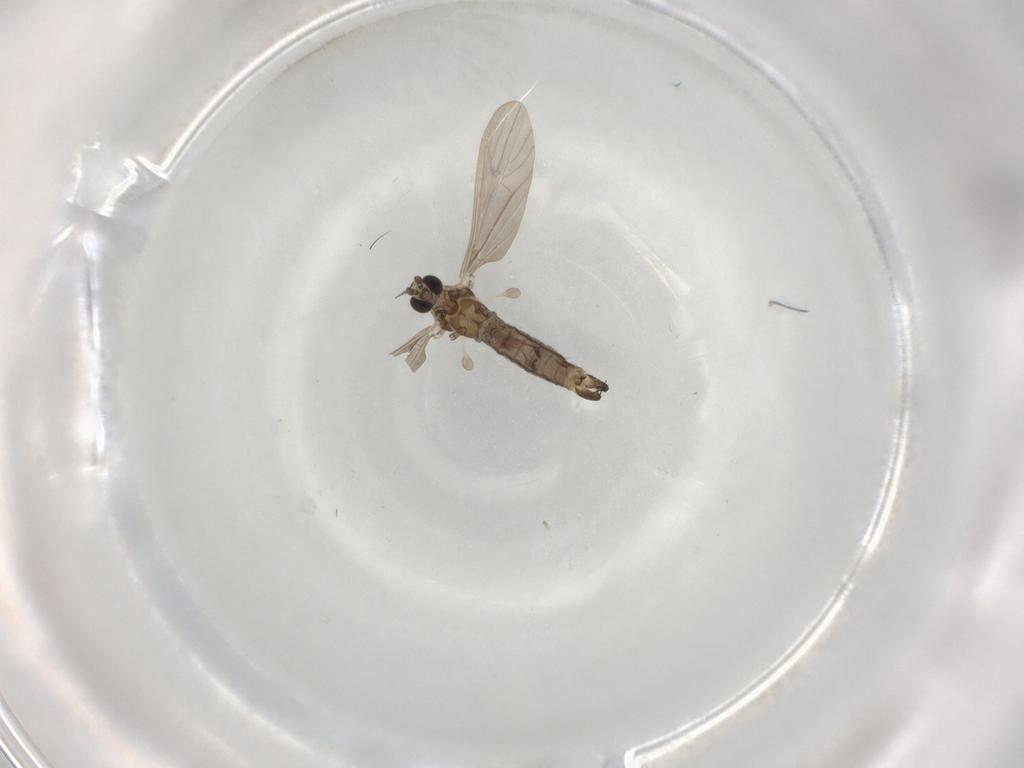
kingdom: Animalia
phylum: Arthropoda
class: Insecta
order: Diptera
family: Limoniidae
